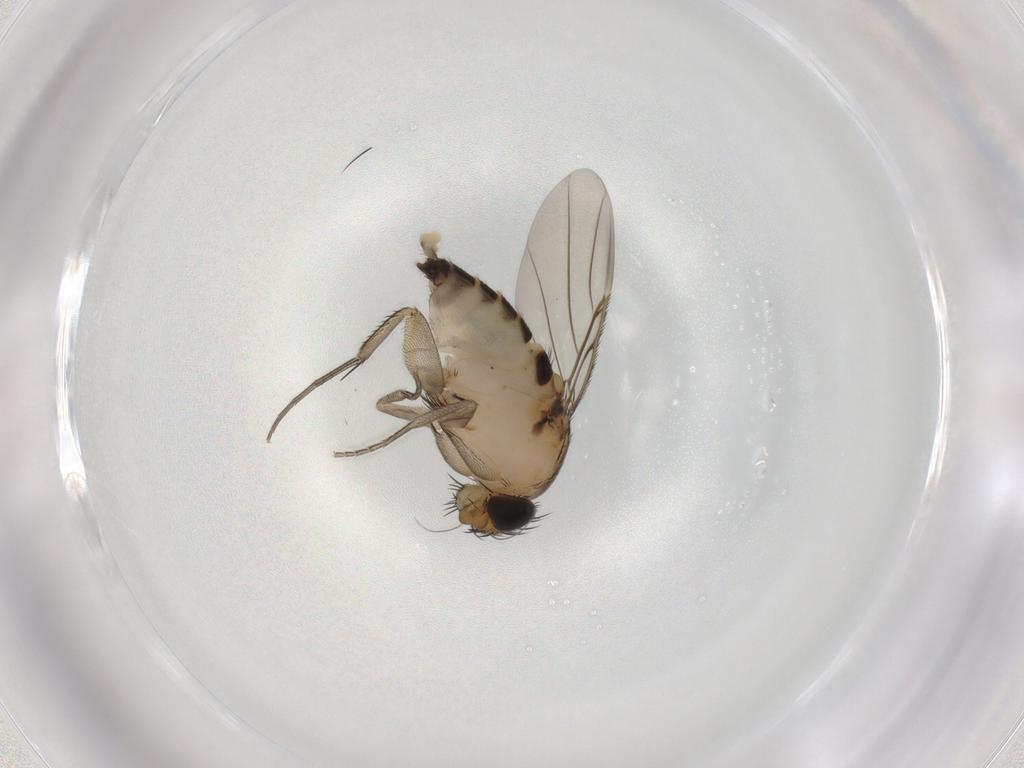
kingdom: Animalia
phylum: Arthropoda
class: Insecta
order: Diptera
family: Phoridae
